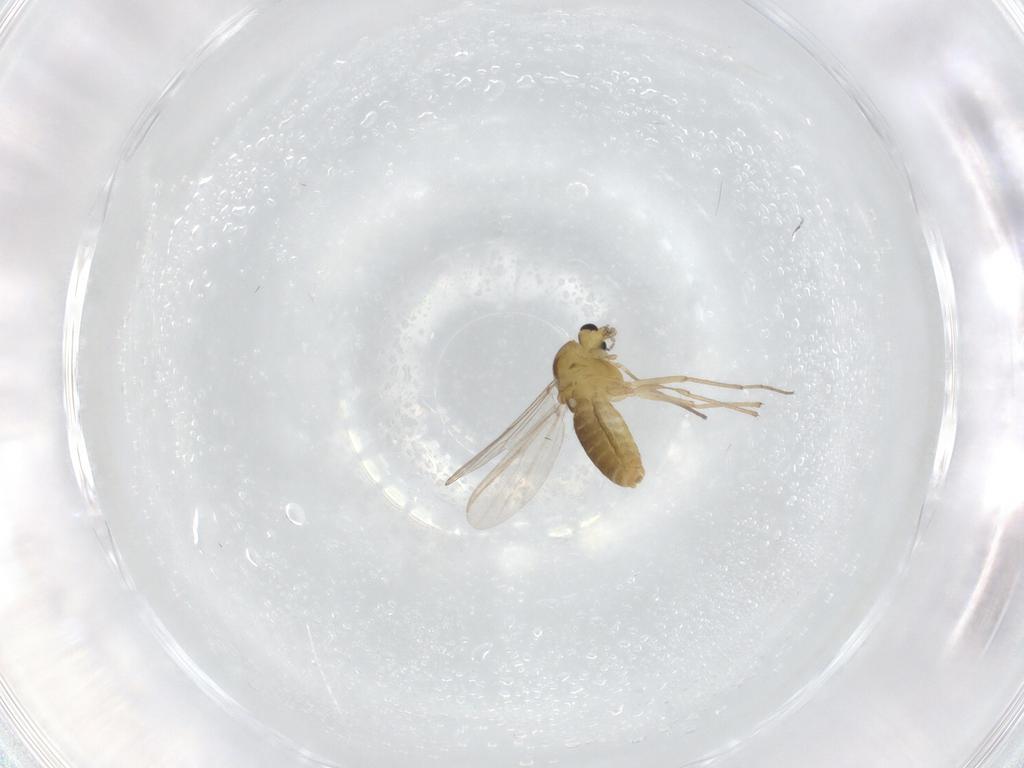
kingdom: Animalia
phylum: Arthropoda
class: Insecta
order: Diptera
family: Chironomidae
